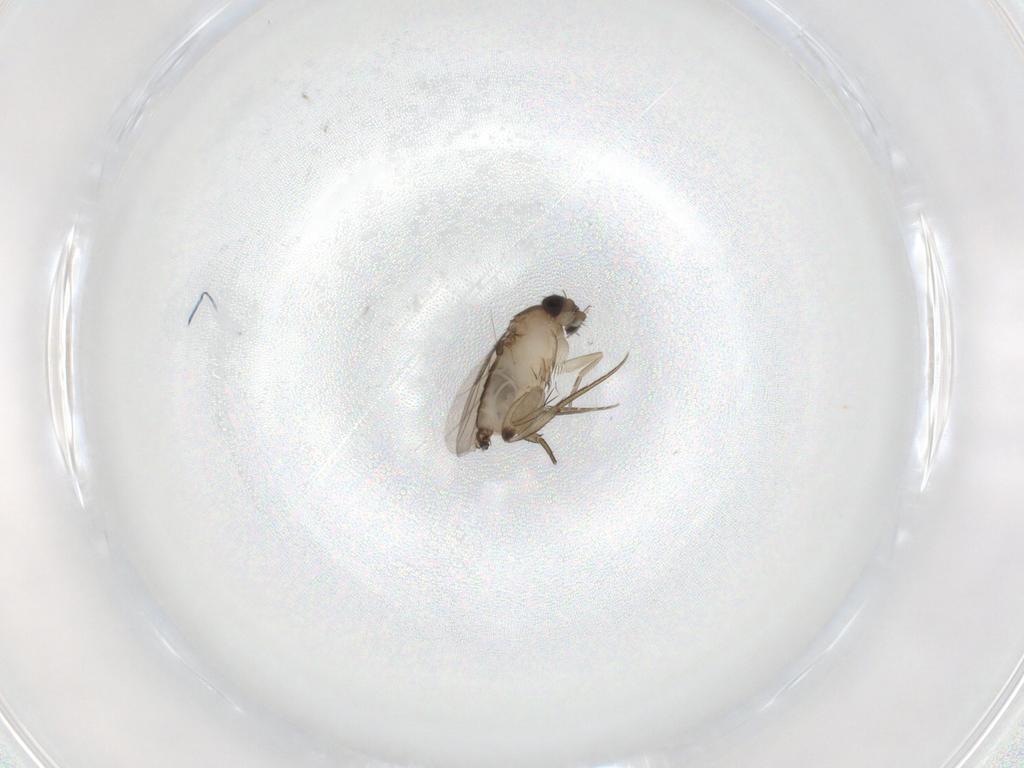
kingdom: Animalia
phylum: Arthropoda
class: Insecta
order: Diptera
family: Phoridae
